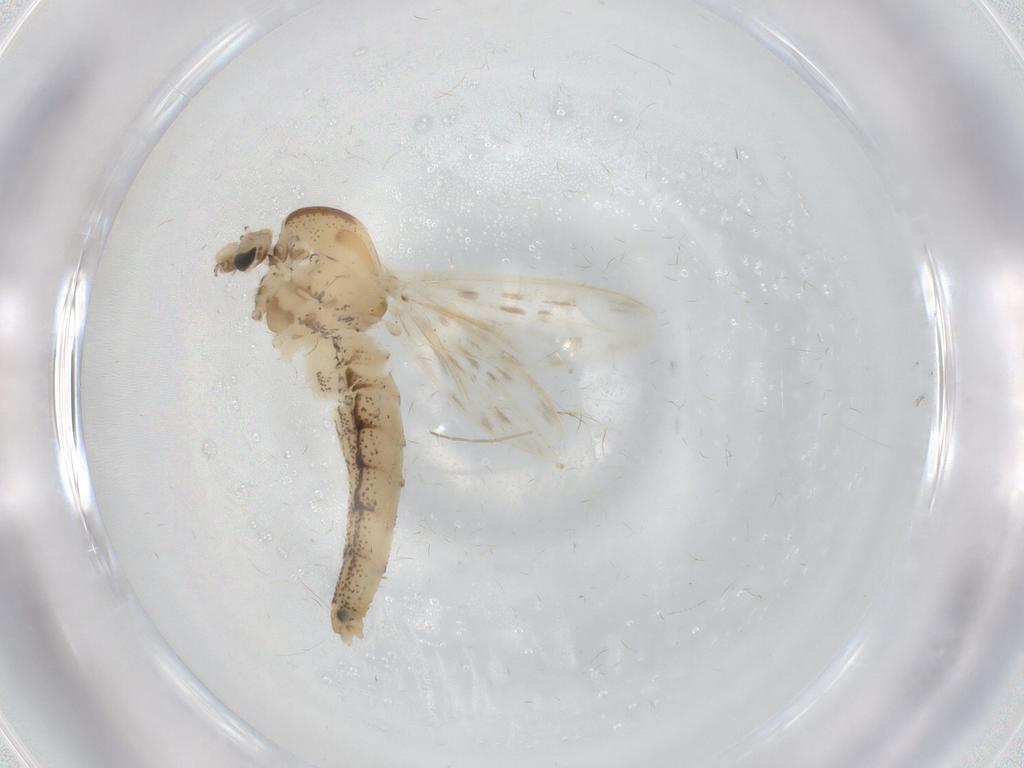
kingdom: Animalia
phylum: Arthropoda
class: Insecta
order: Diptera
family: Chaoboridae
